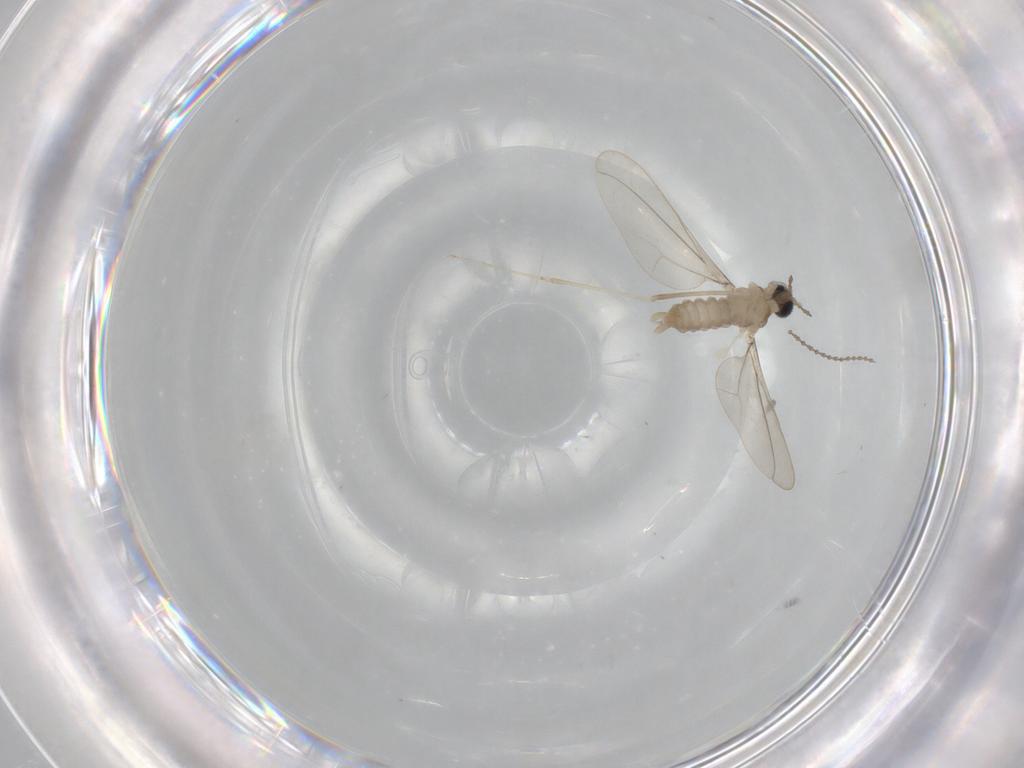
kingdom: Animalia
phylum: Arthropoda
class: Insecta
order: Diptera
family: Cecidomyiidae
